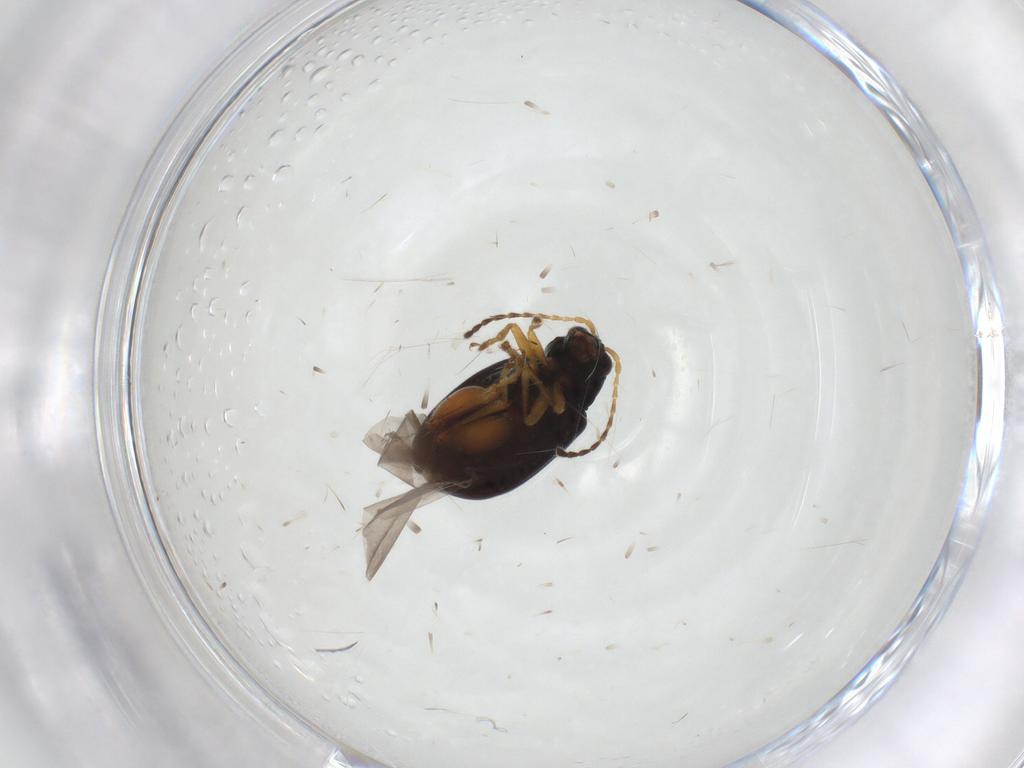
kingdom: Animalia
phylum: Arthropoda
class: Insecta
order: Coleoptera
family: Chrysomelidae
